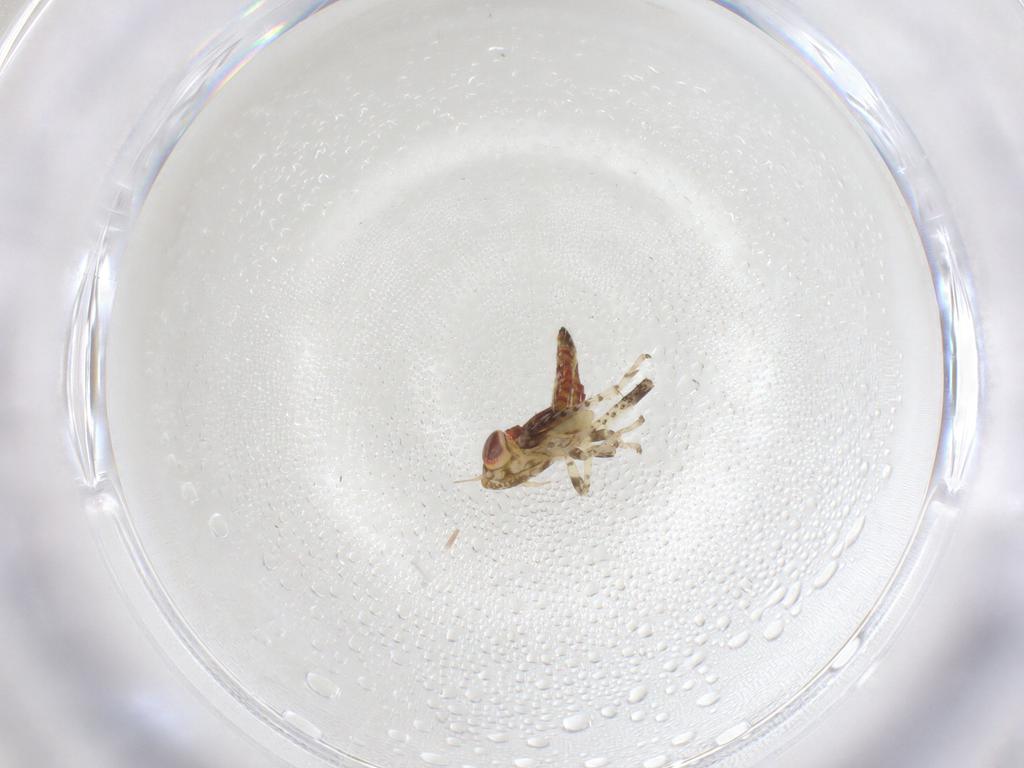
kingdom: Animalia
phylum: Arthropoda
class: Insecta
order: Hemiptera
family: Cicadellidae
